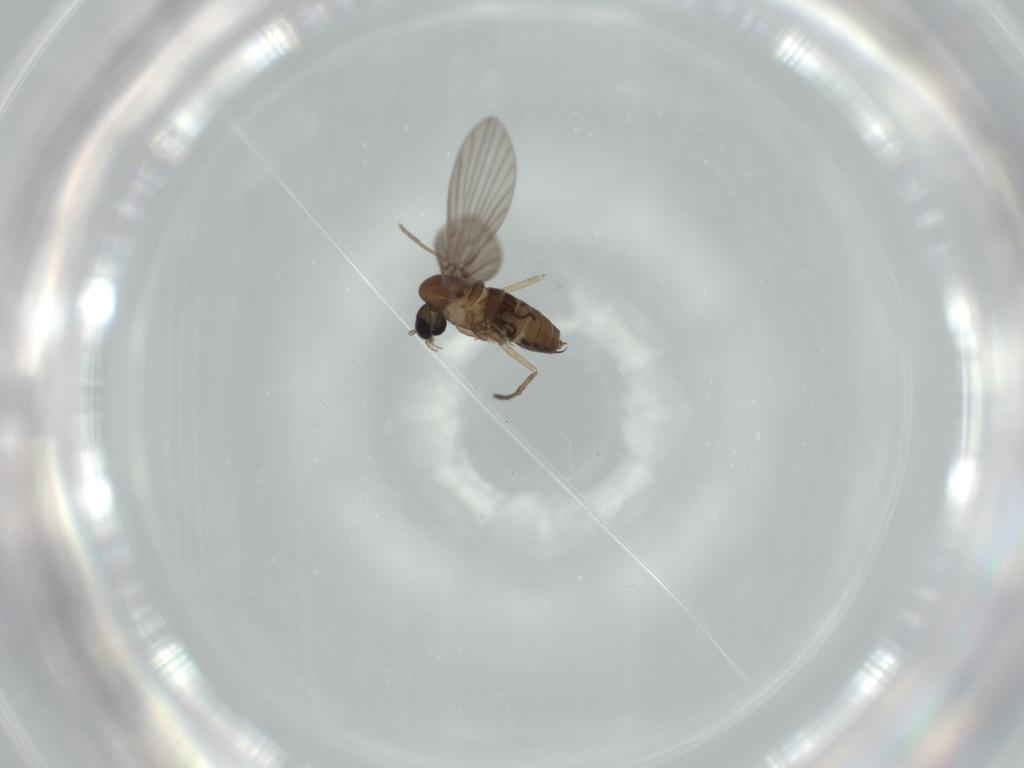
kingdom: Animalia
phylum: Arthropoda
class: Insecta
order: Diptera
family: Psychodidae
